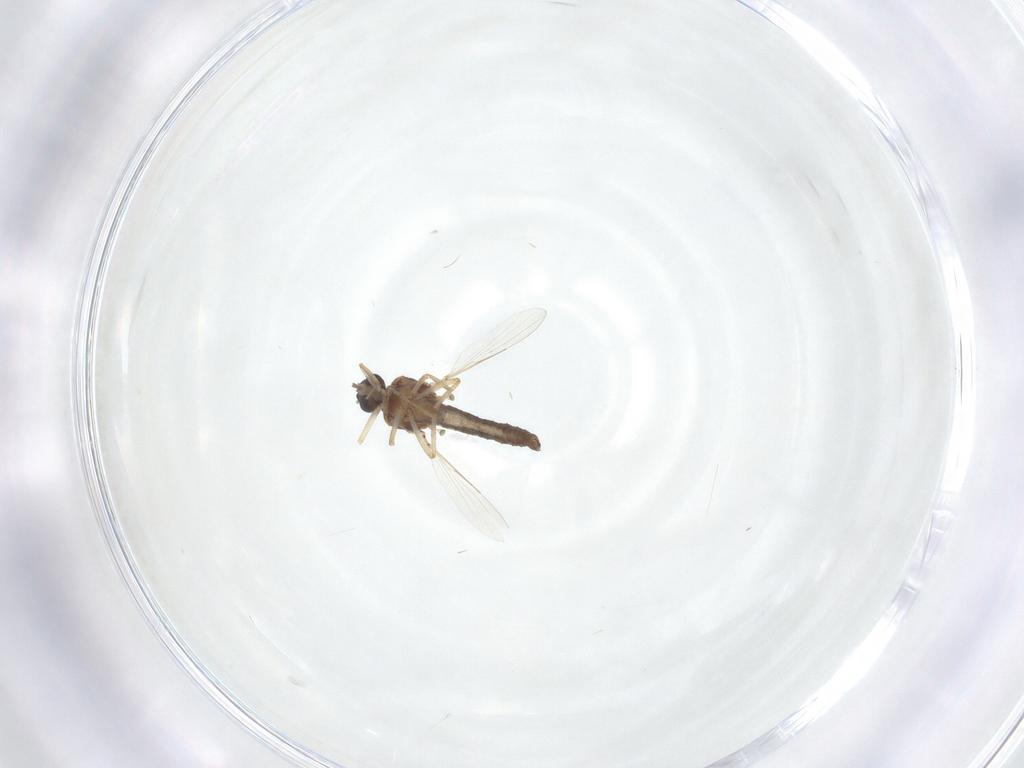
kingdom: Animalia
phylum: Arthropoda
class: Insecta
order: Diptera
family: Ceratopogonidae
